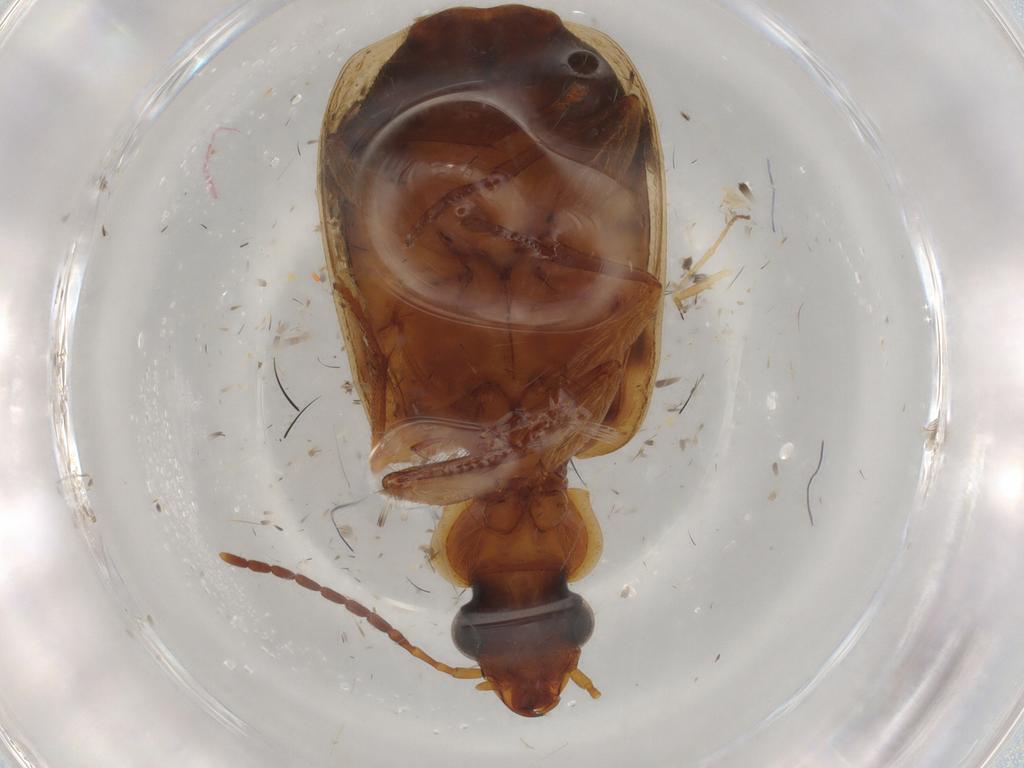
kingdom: Animalia
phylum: Arthropoda
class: Insecta
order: Coleoptera
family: Carabidae
